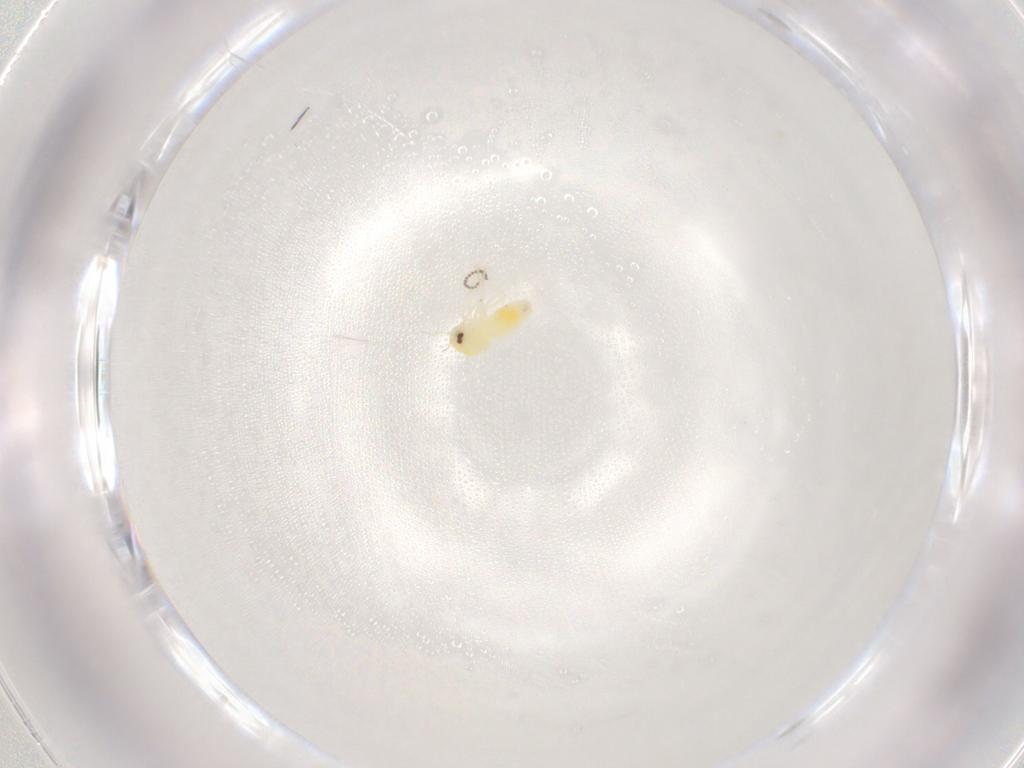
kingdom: Animalia
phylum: Arthropoda
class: Insecta
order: Hemiptera
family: Aleyrodidae
